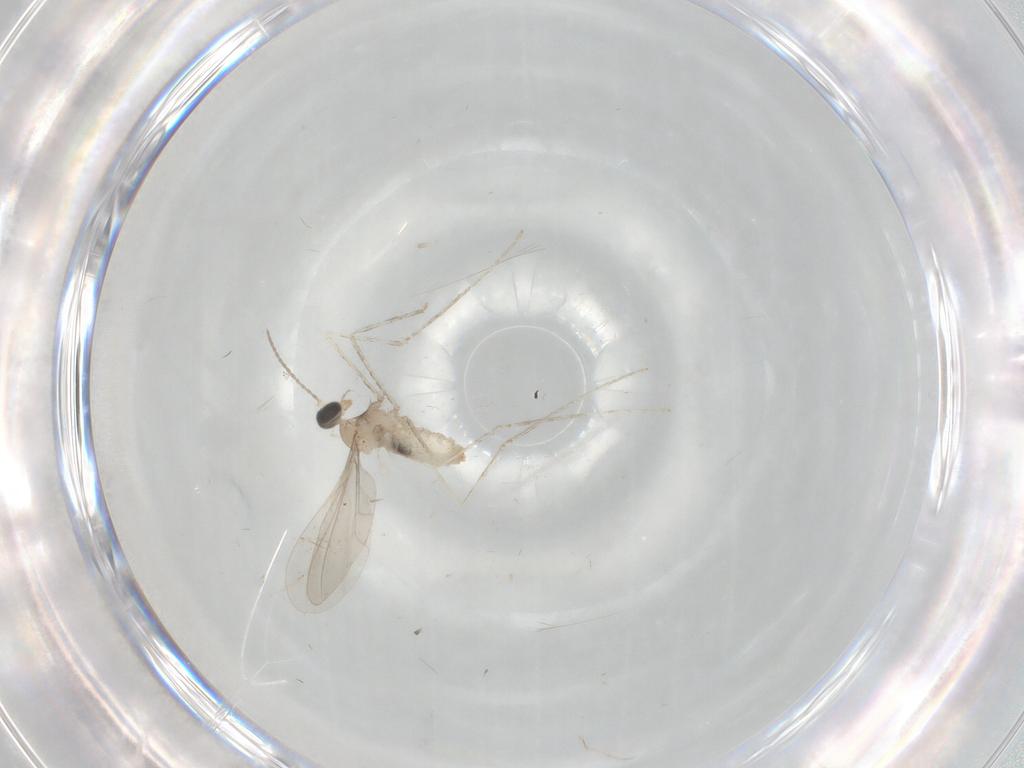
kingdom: Animalia
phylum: Arthropoda
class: Insecta
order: Diptera
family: Cecidomyiidae
